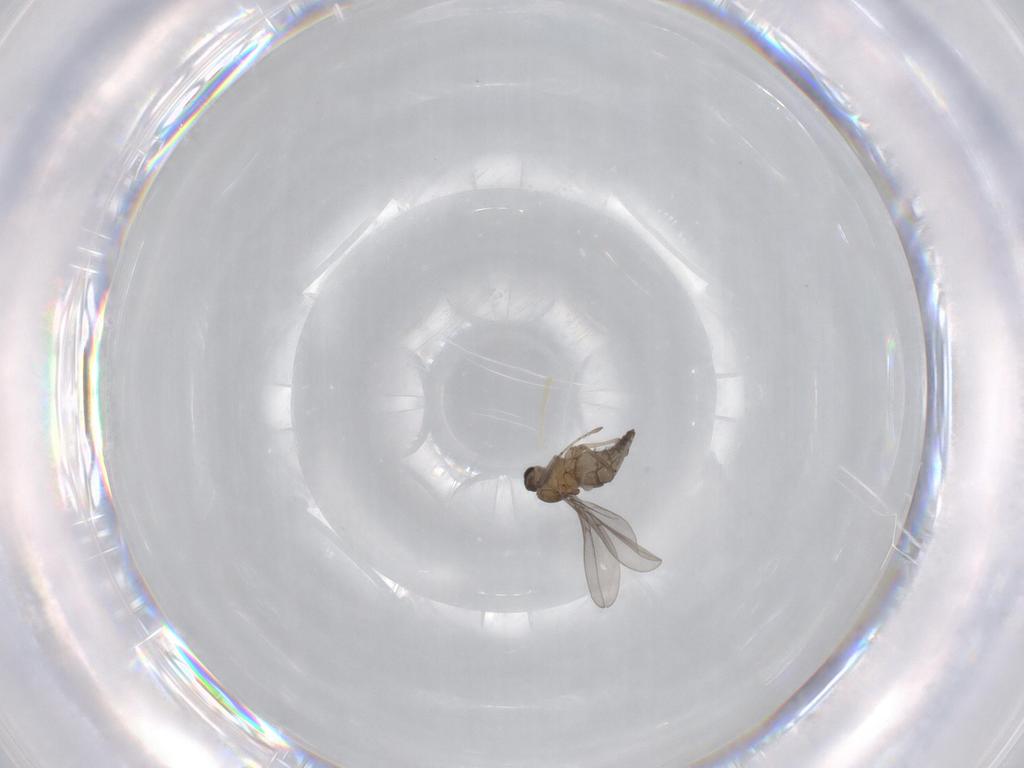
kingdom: Animalia
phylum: Arthropoda
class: Insecta
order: Diptera
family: Cecidomyiidae
